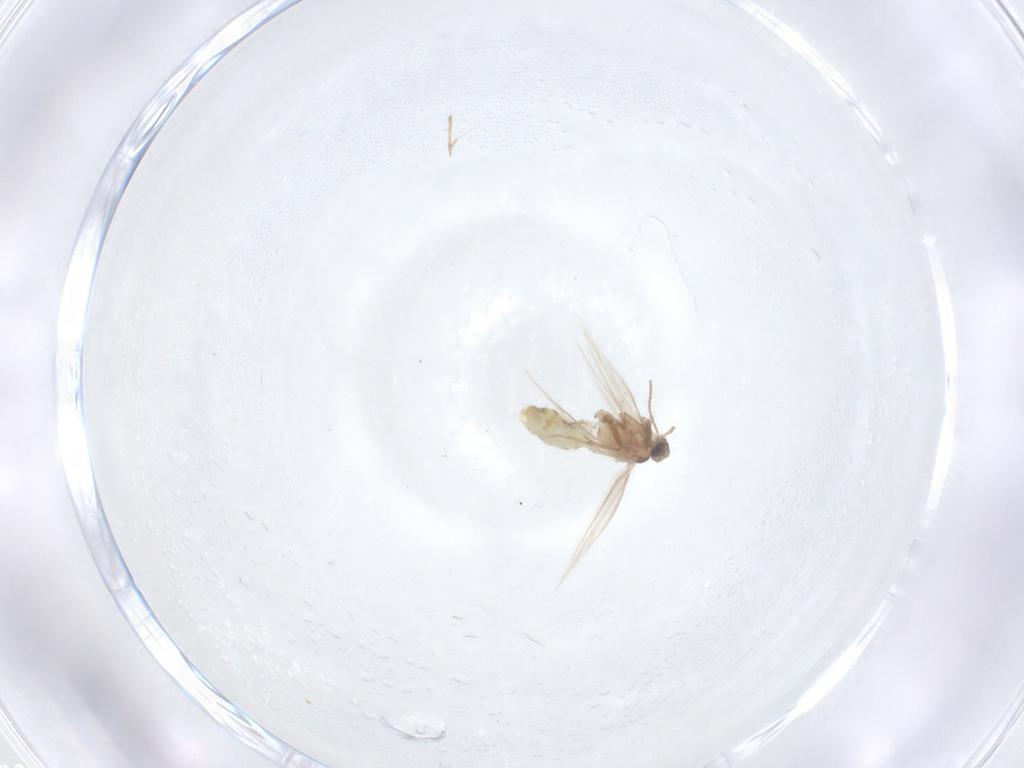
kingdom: Animalia
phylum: Arthropoda
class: Insecta
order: Lepidoptera
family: Nepticulidae
